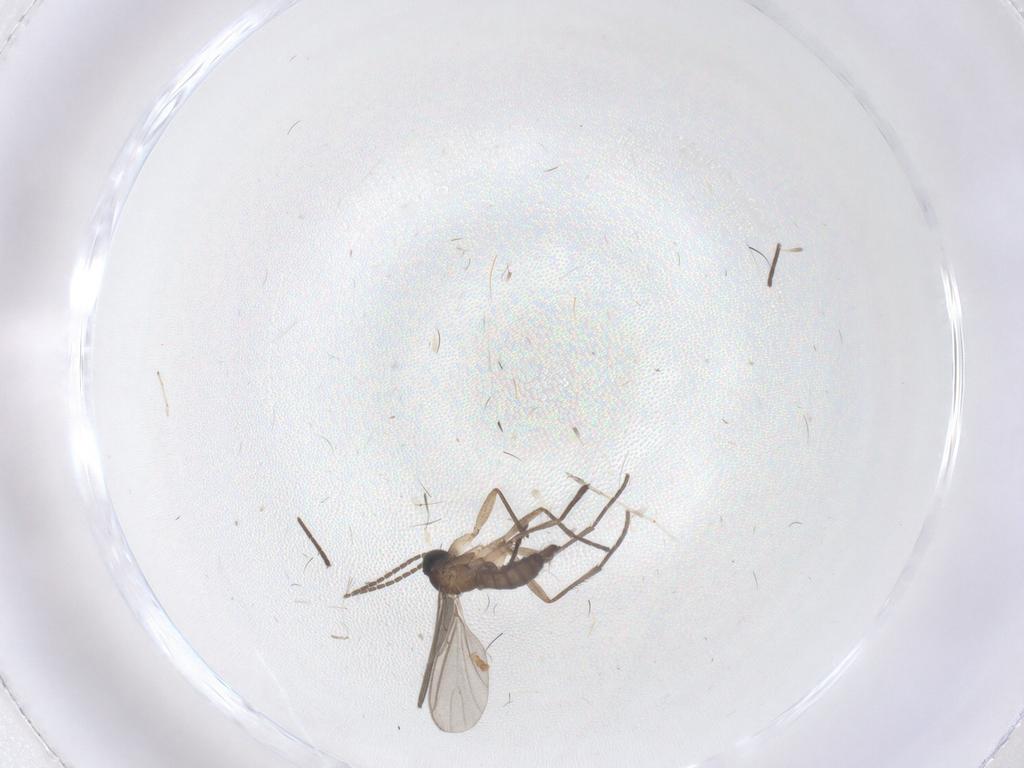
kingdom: Animalia
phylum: Arthropoda
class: Insecta
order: Diptera
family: Sciaridae
